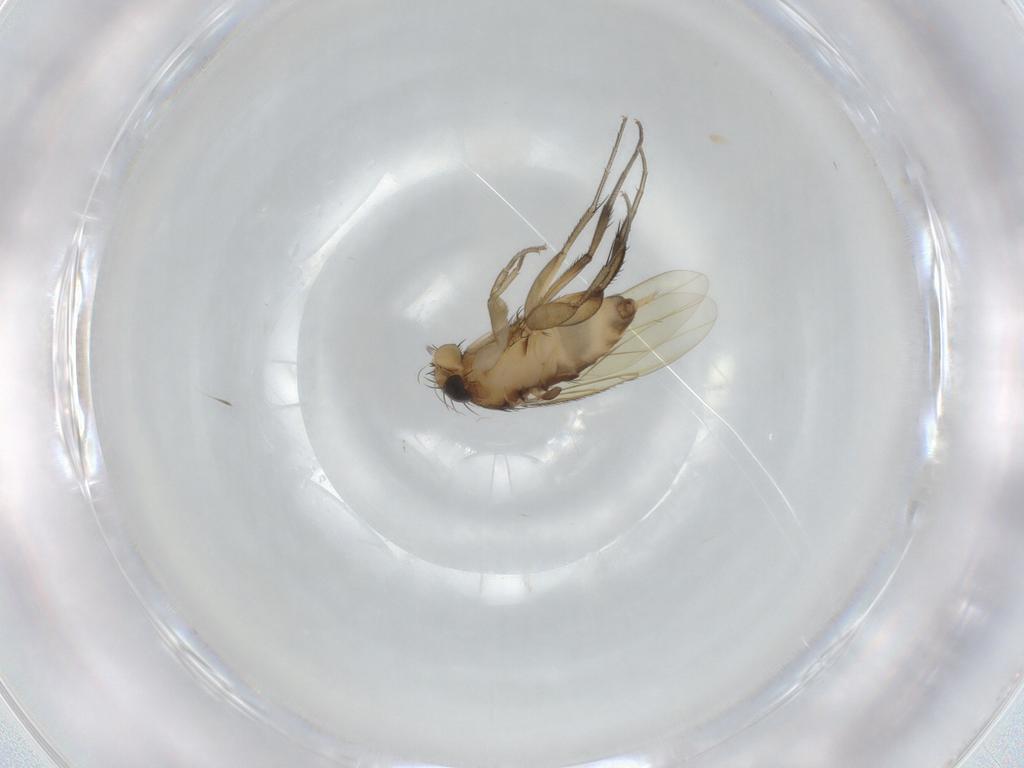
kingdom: Animalia
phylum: Arthropoda
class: Insecta
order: Diptera
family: Phoridae
